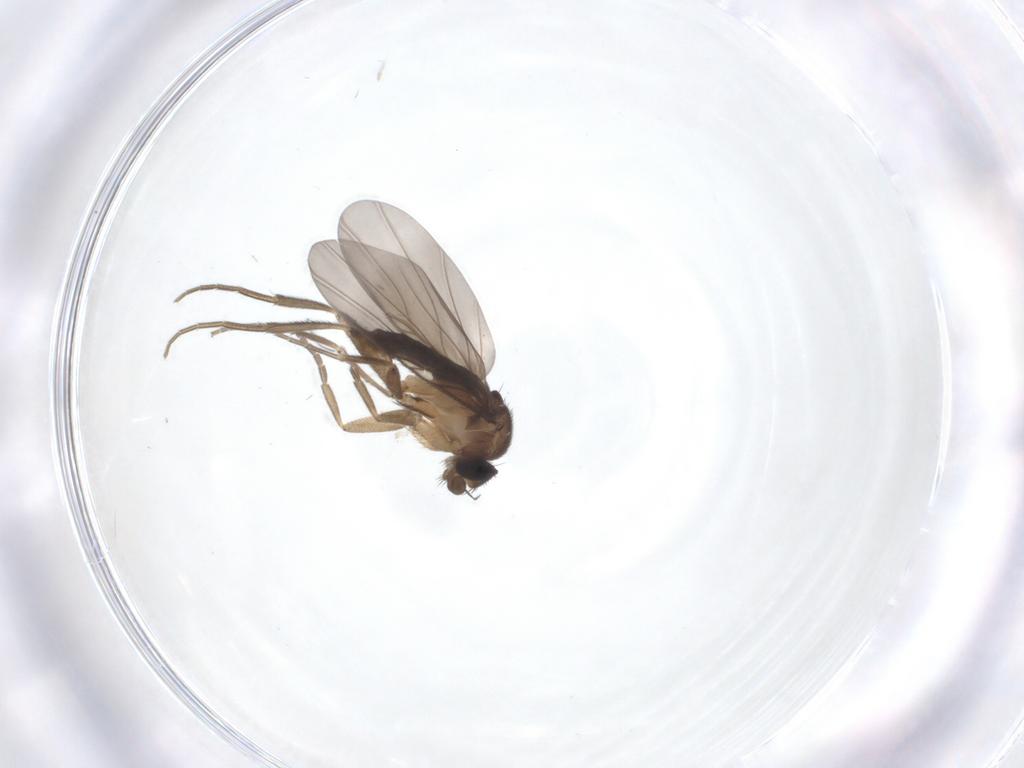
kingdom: Animalia
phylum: Arthropoda
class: Insecta
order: Diptera
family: Phoridae
